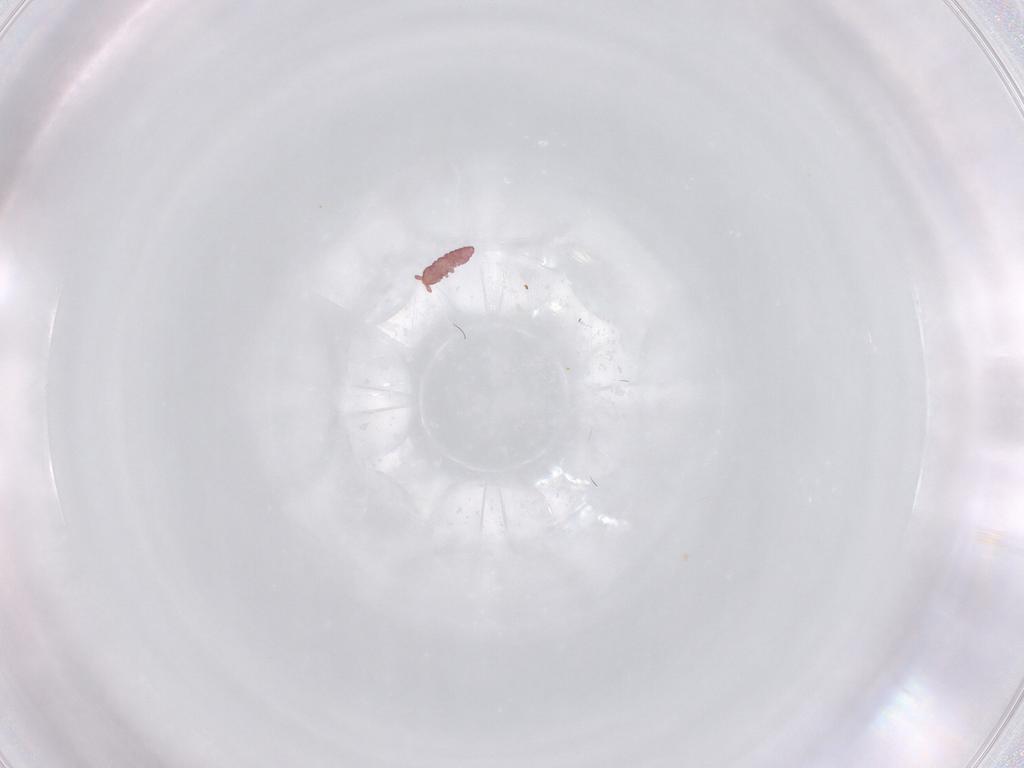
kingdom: Animalia
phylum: Arthropoda
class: Collembola
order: Poduromorpha
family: Hypogastruridae
